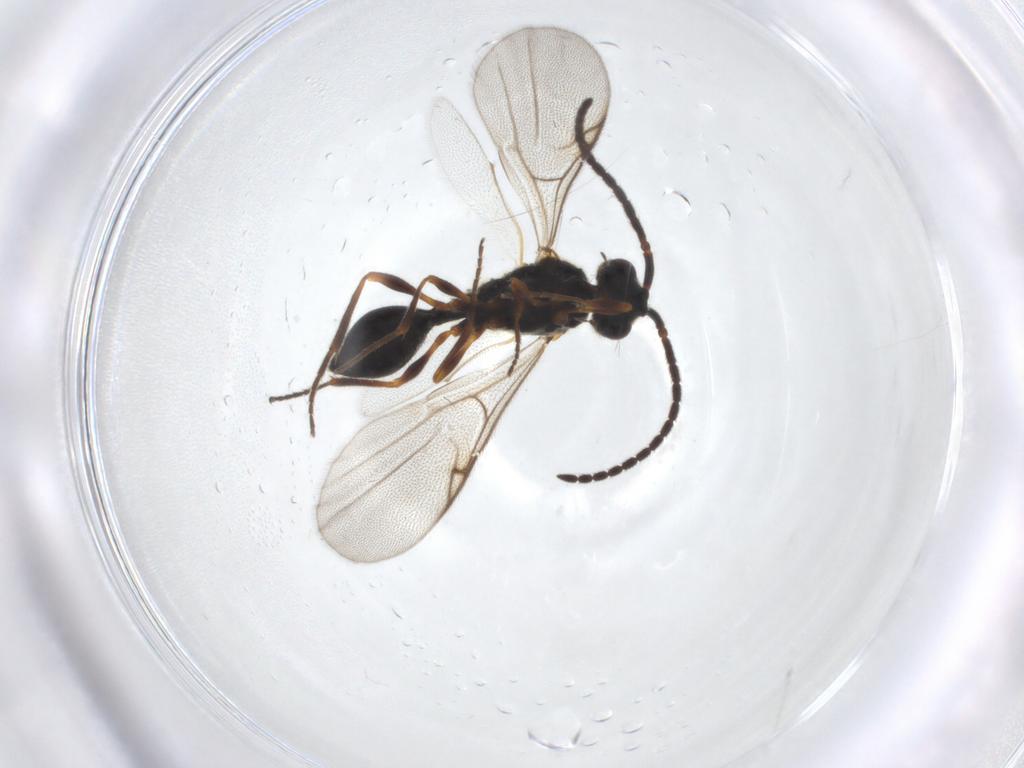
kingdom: Animalia
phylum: Arthropoda
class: Insecta
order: Hymenoptera
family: Diapriidae
